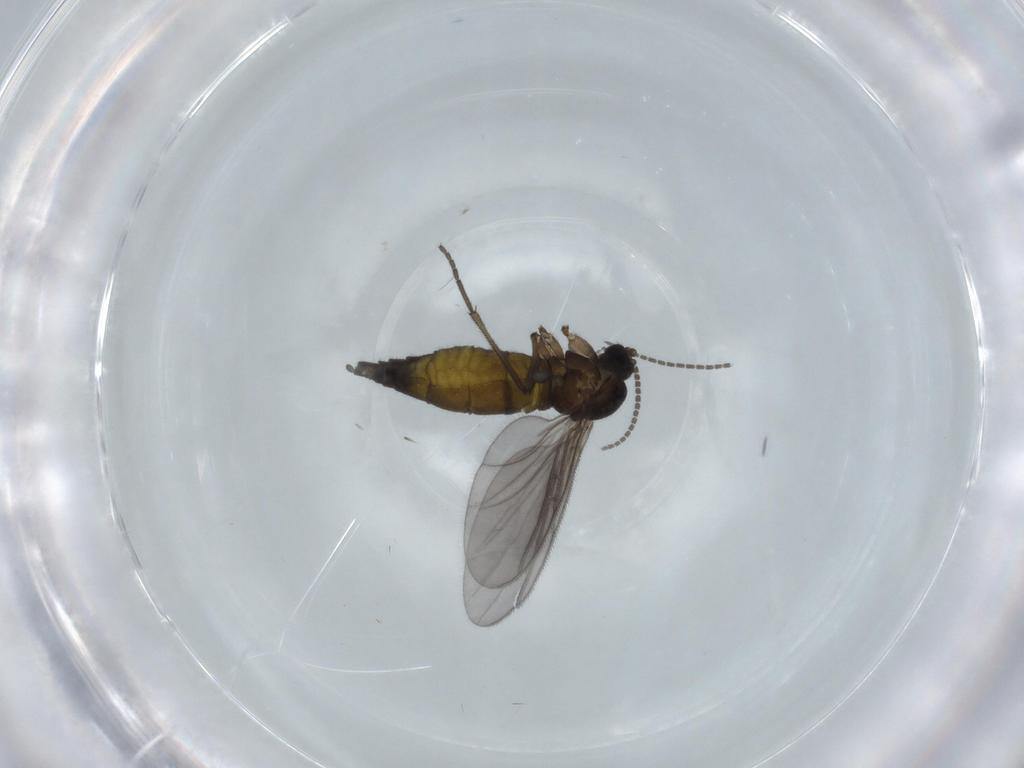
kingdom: Animalia
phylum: Arthropoda
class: Insecta
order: Diptera
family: Sciaridae
